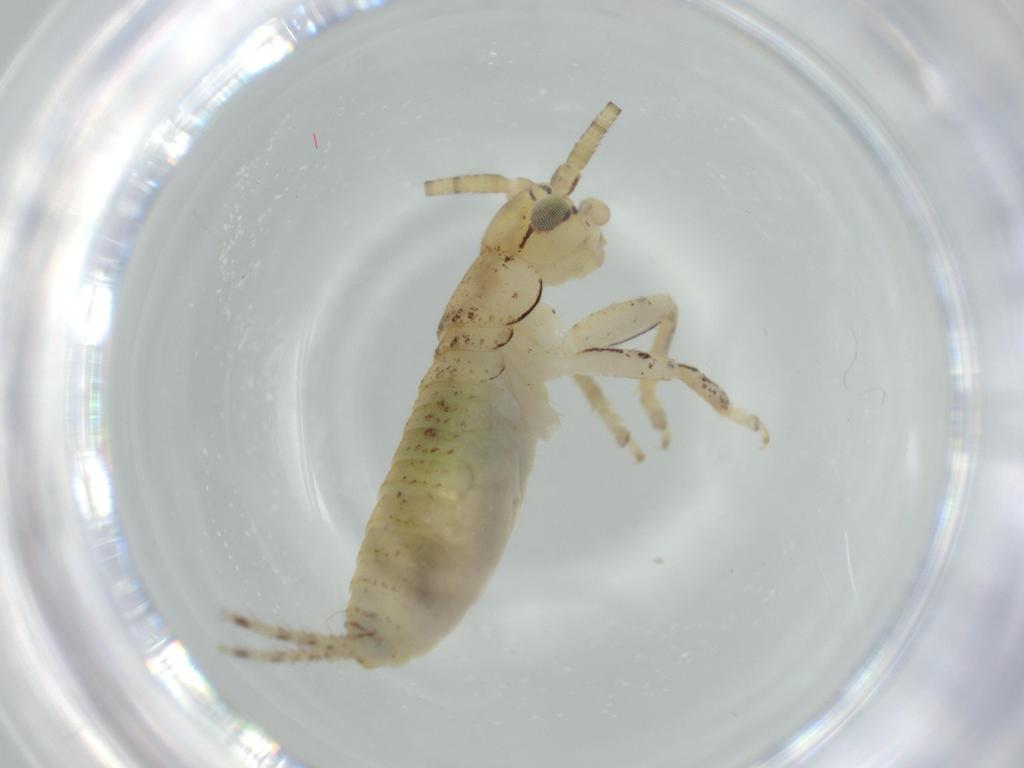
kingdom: Animalia
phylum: Arthropoda
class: Insecta
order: Orthoptera
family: Gryllidae
